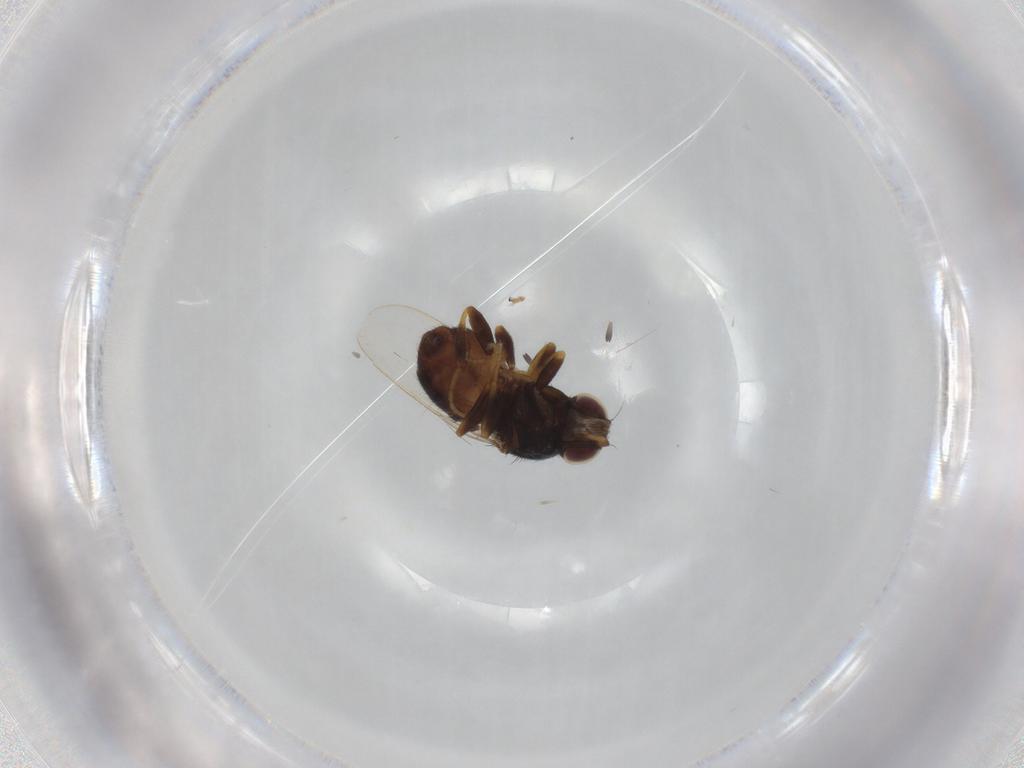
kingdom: Animalia
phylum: Arthropoda
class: Insecta
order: Diptera
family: Chloropidae
